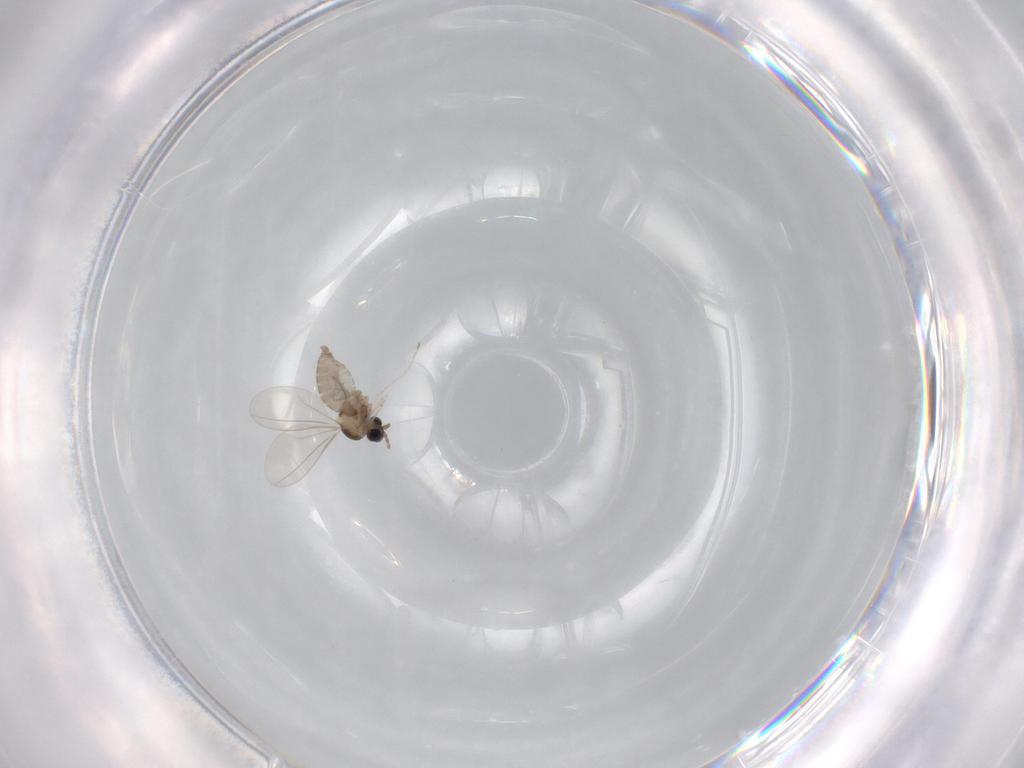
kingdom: Animalia
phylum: Arthropoda
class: Insecta
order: Diptera
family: Cecidomyiidae
